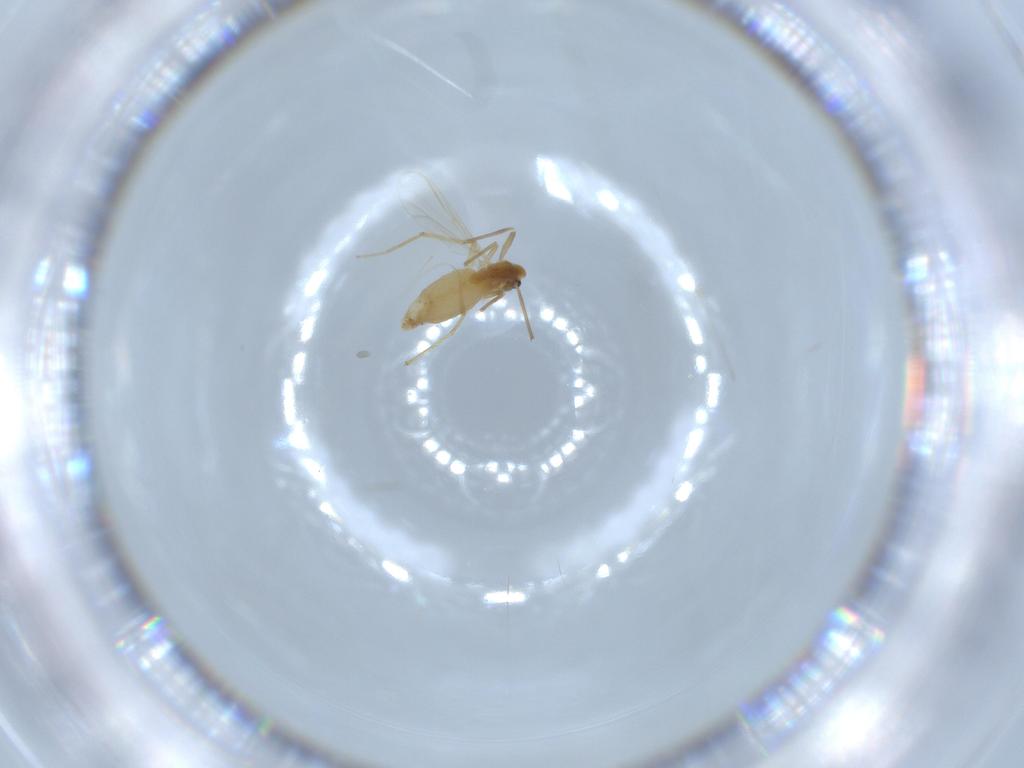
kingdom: Animalia
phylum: Arthropoda
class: Insecta
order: Diptera
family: Chironomidae
